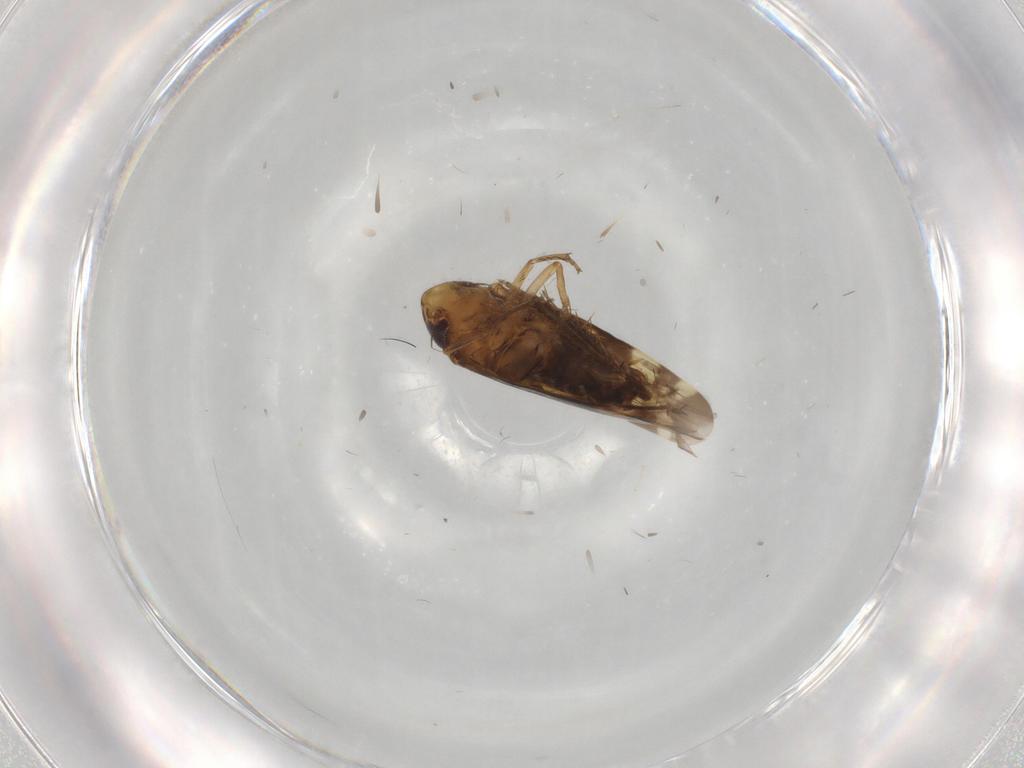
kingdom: Animalia
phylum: Arthropoda
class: Insecta
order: Hemiptera
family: Cicadellidae
